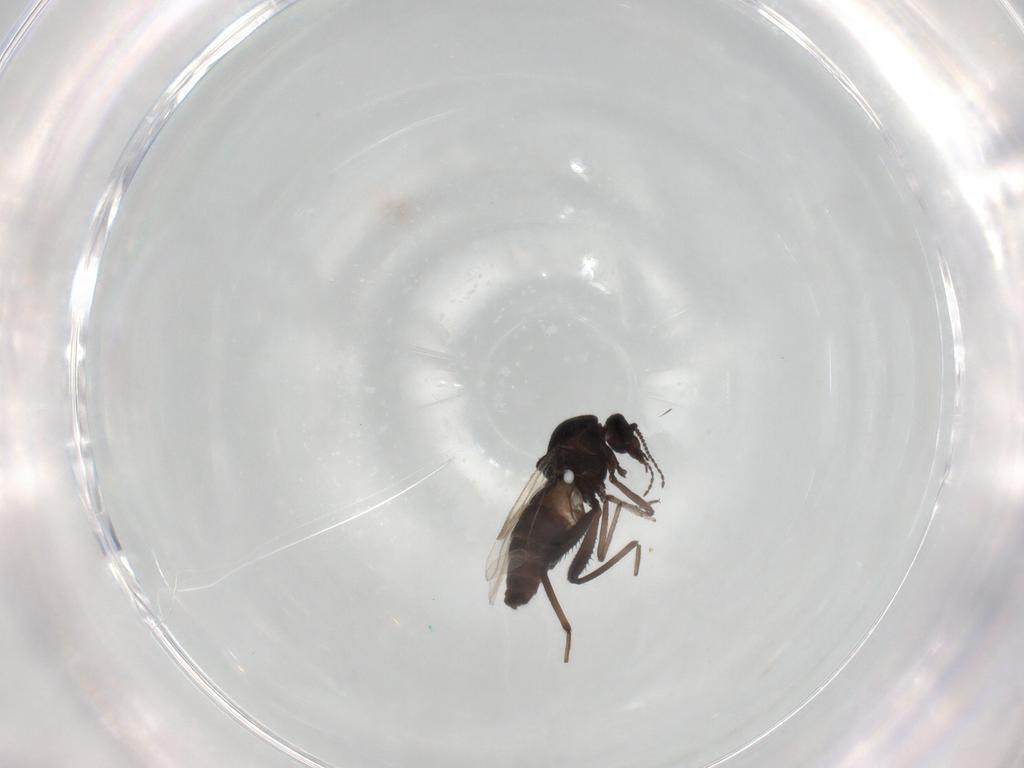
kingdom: Animalia
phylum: Arthropoda
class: Insecta
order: Diptera
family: Ceratopogonidae
